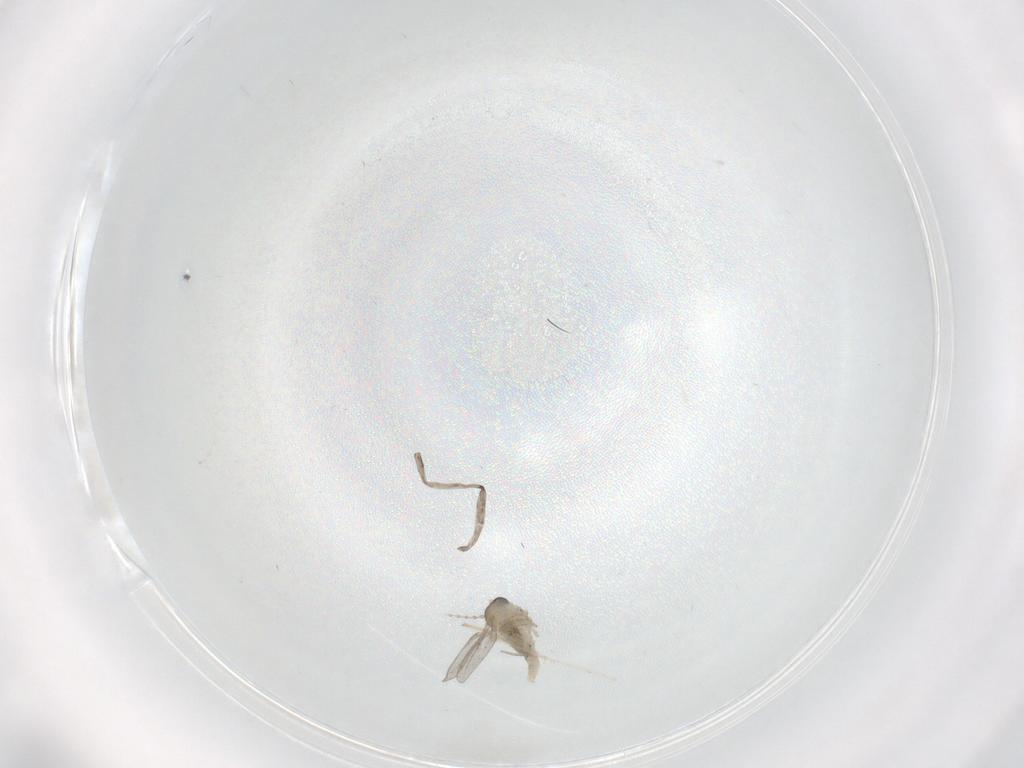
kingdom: Animalia
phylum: Arthropoda
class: Insecta
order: Diptera
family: Cecidomyiidae
